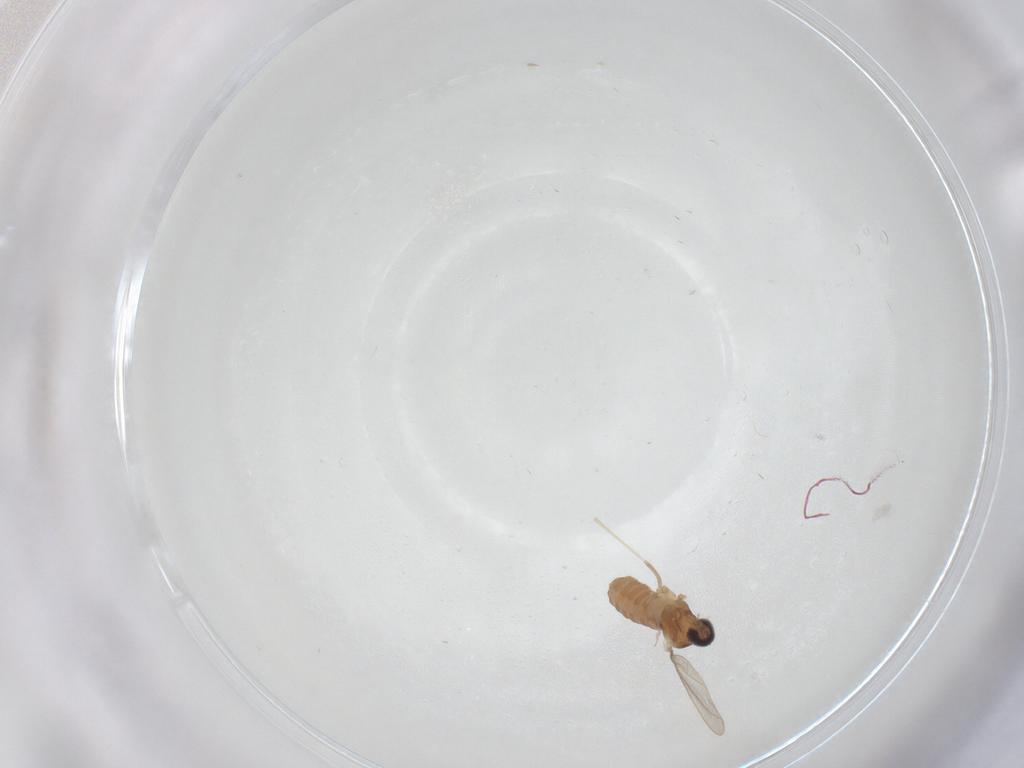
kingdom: Animalia
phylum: Arthropoda
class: Insecta
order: Diptera
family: Cecidomyiidae
